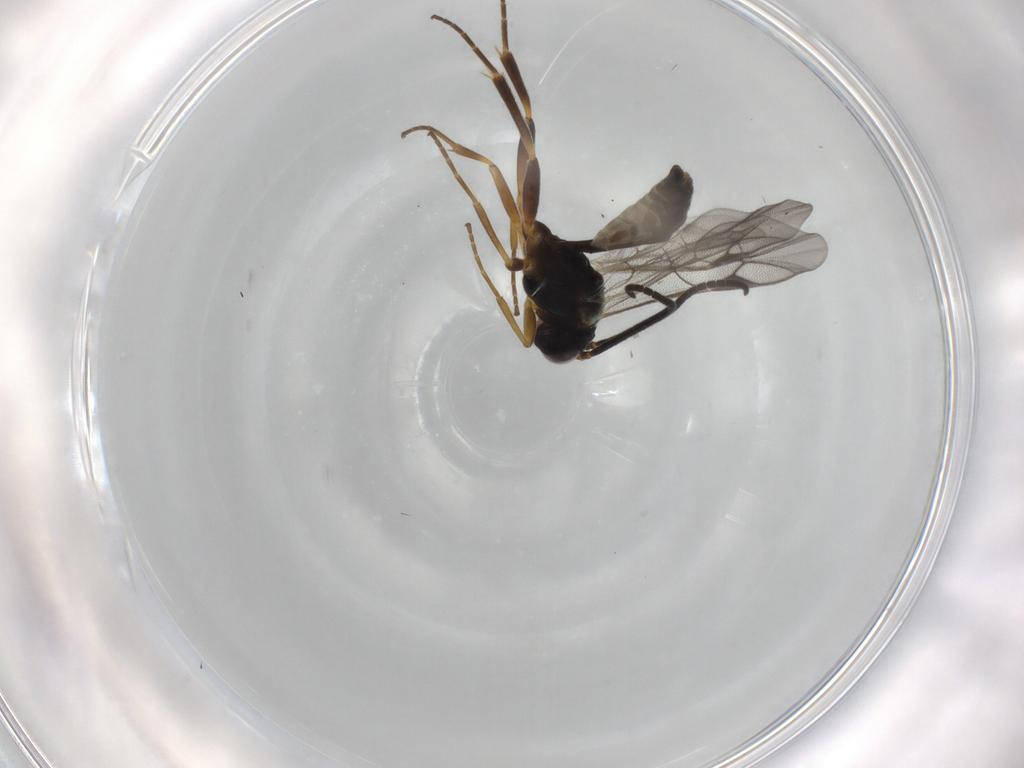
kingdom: Animalia
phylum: Arthropoda
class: Insecta
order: Hymenoptera
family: Ichneumonidae
